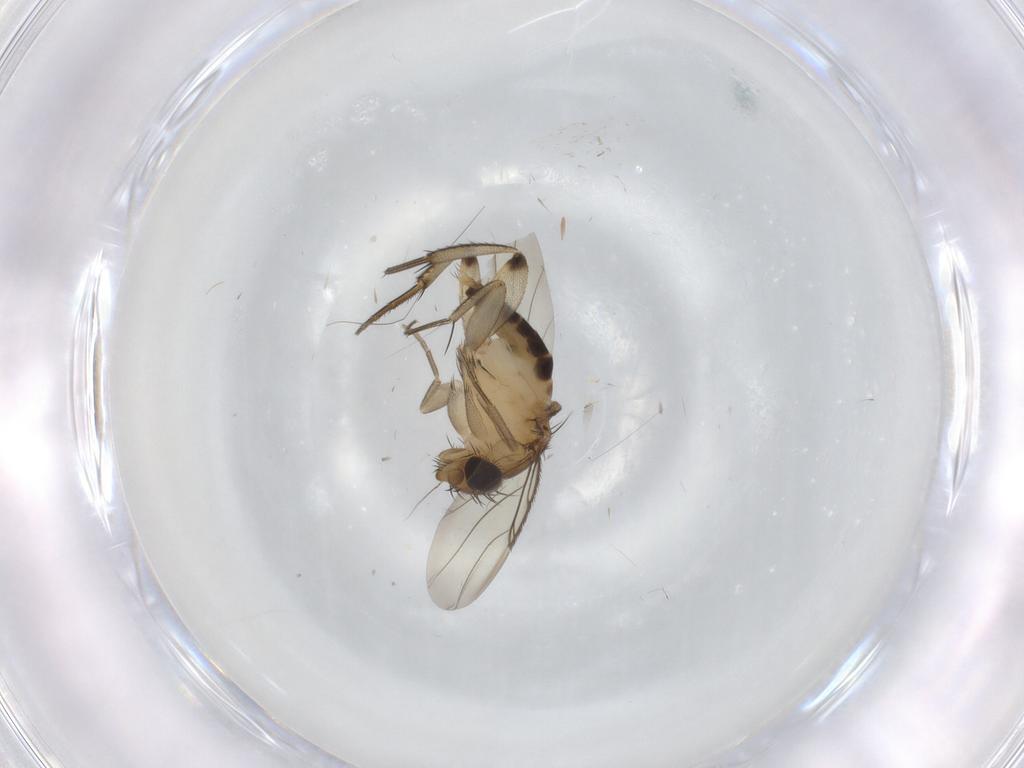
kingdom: Animalia
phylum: Arthropoda
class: Insecta
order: Diptera
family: Phoridae
